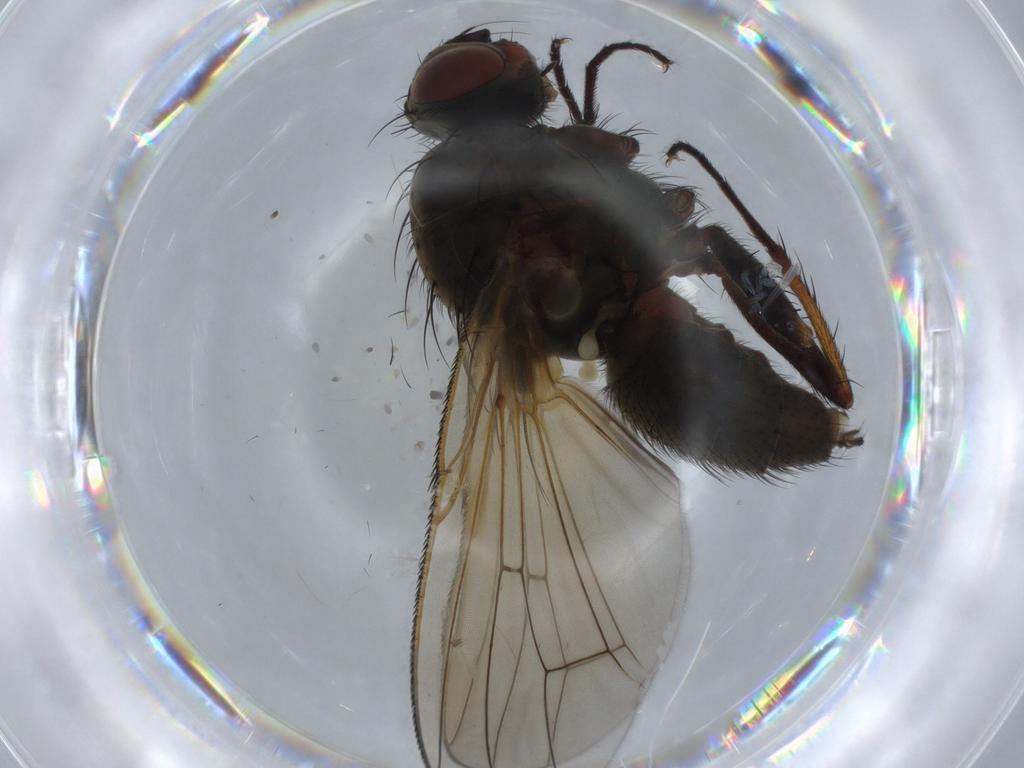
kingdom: Animalia
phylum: Arthropoda
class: Insecta
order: Diptera
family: Anthomyiidae
